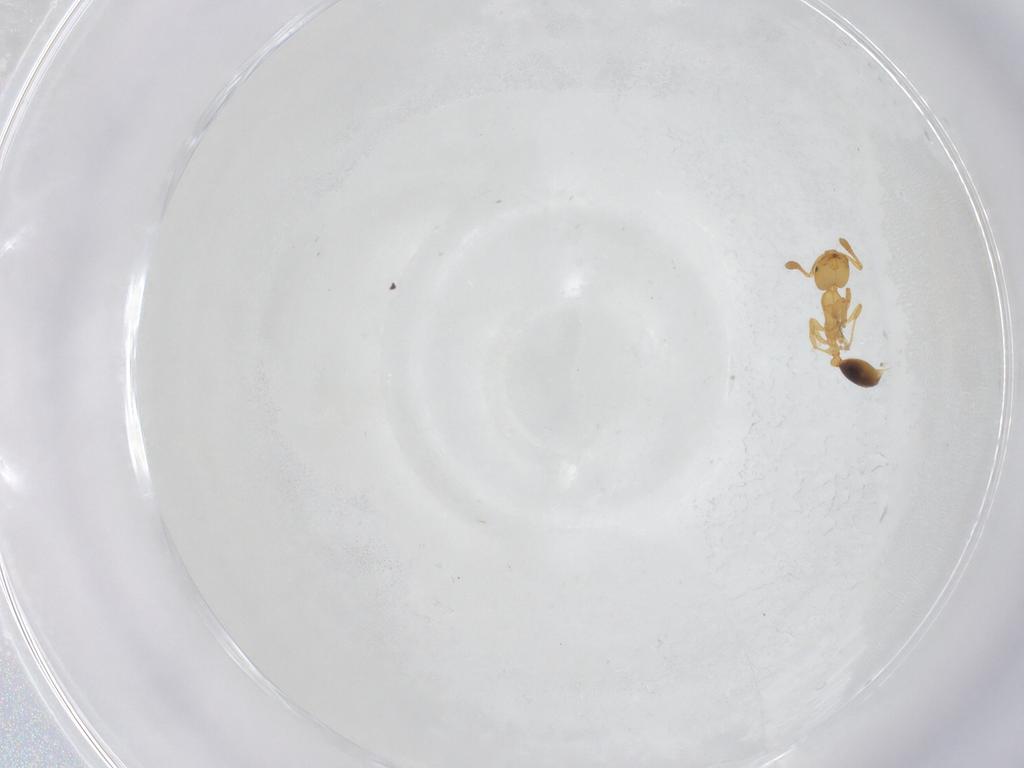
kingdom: Animalia
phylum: Arthropoda
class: Insecta
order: Hymenoptera
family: Formicidae
